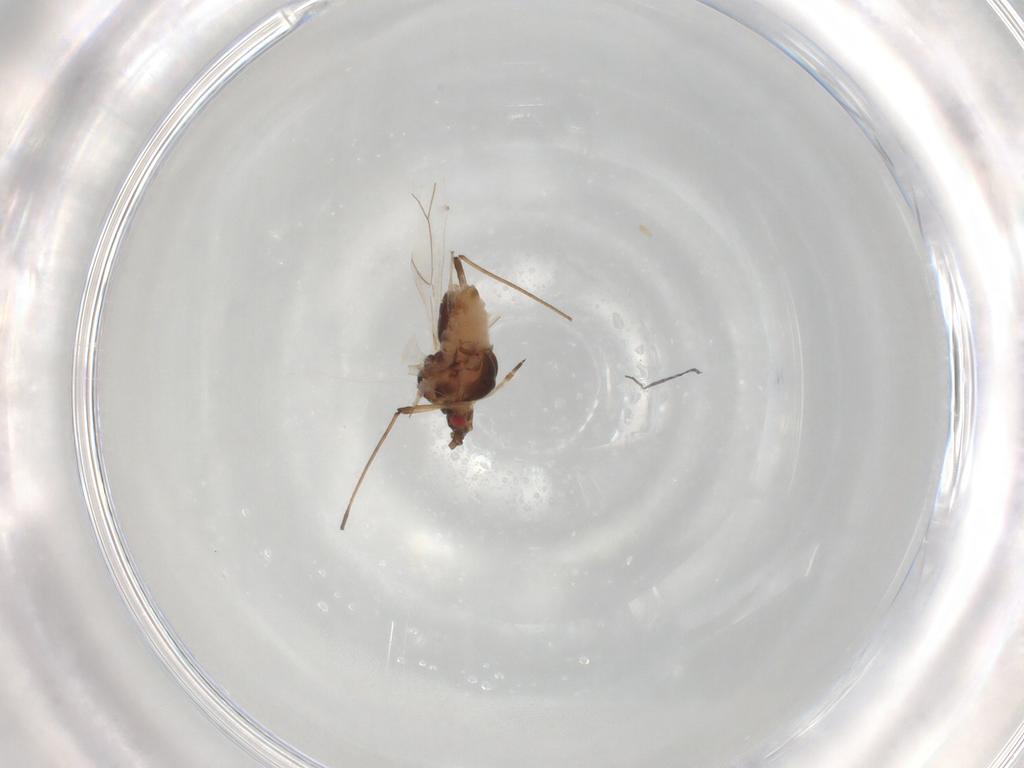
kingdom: Animalia
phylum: Arthropoda
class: Insecta
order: Hemiptera
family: Aphididae
